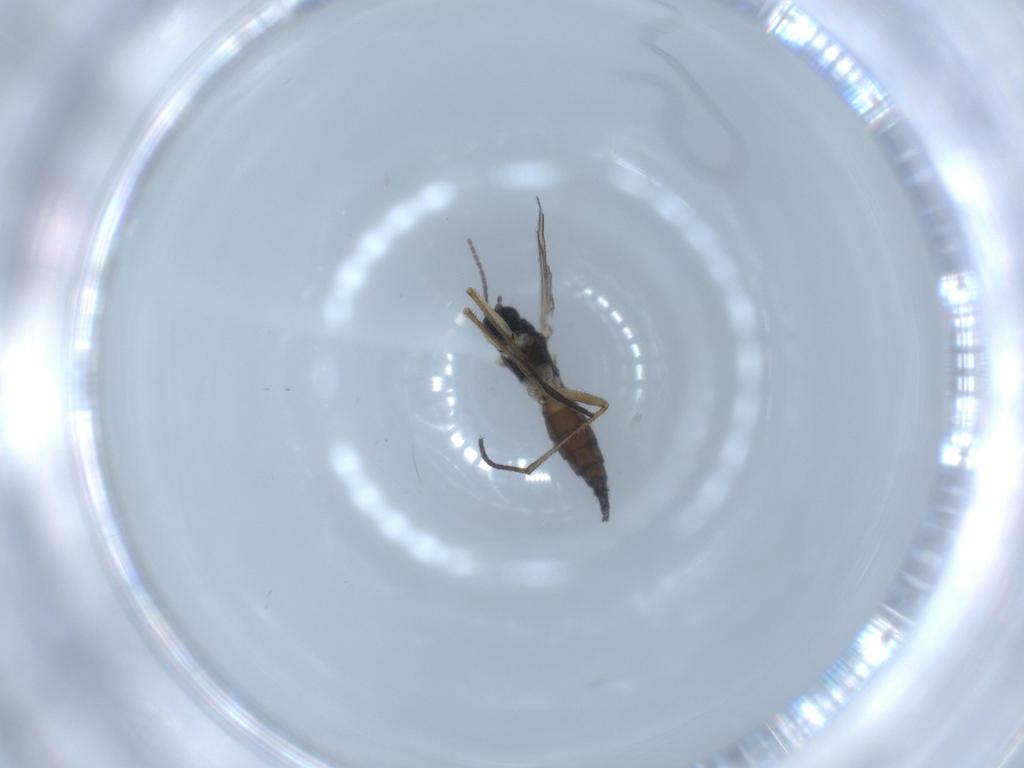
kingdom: Animalia
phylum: Arthropoda
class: Insecta
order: Diptera
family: Sciaridae
